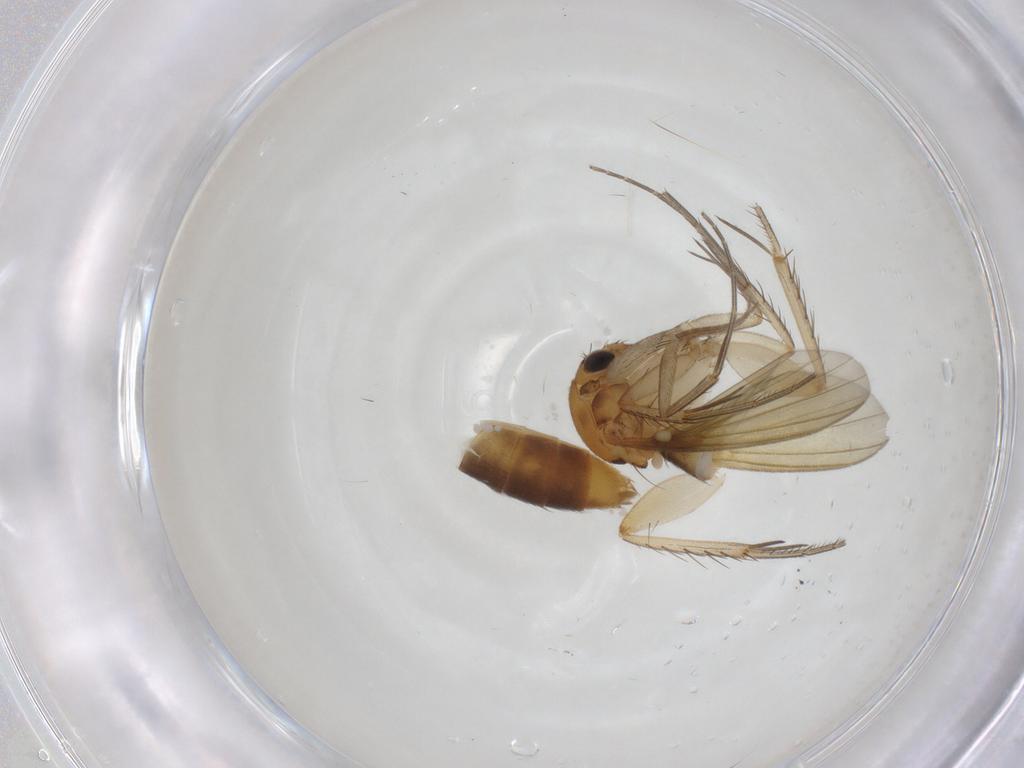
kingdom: Animalia
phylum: Arthropoda
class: Insecta
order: Diptera
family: Mycetophilidae
